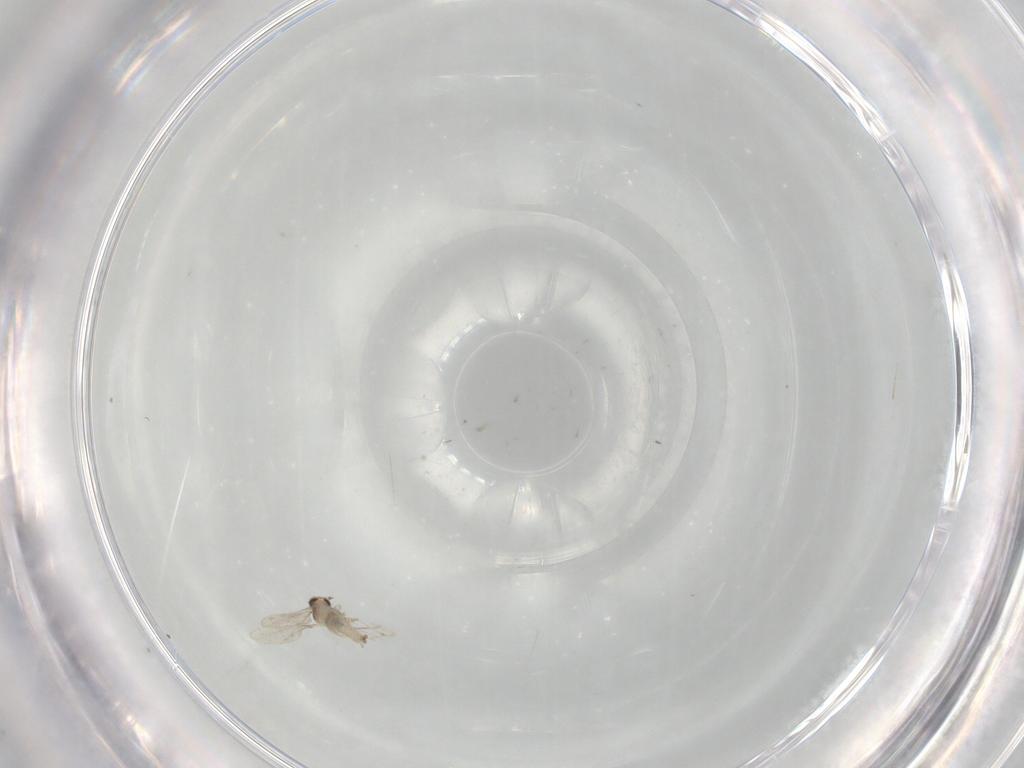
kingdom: Animalia
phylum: Arthropoda
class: Insecta
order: Diptera
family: Cecidomyiidae
